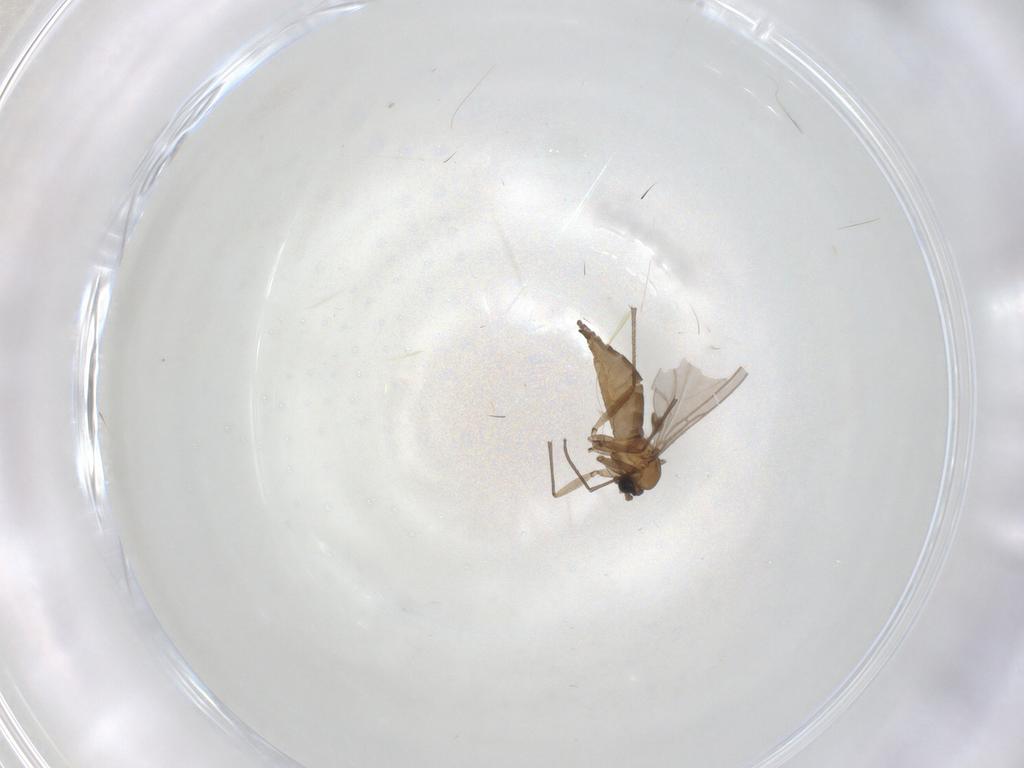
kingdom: Animalia
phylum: Arthropoda
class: Insecta
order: Diptera
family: Sciaridae
